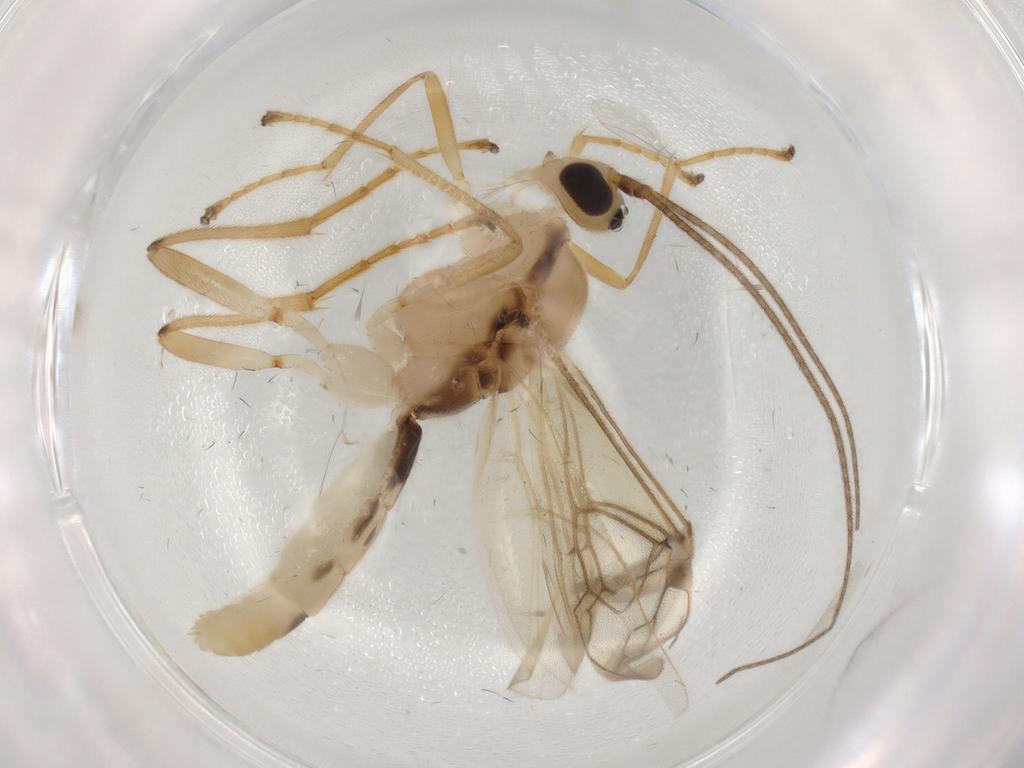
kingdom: Animalia
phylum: Arthropoda
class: Insecta
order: Hymenoptera
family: Braconidae
